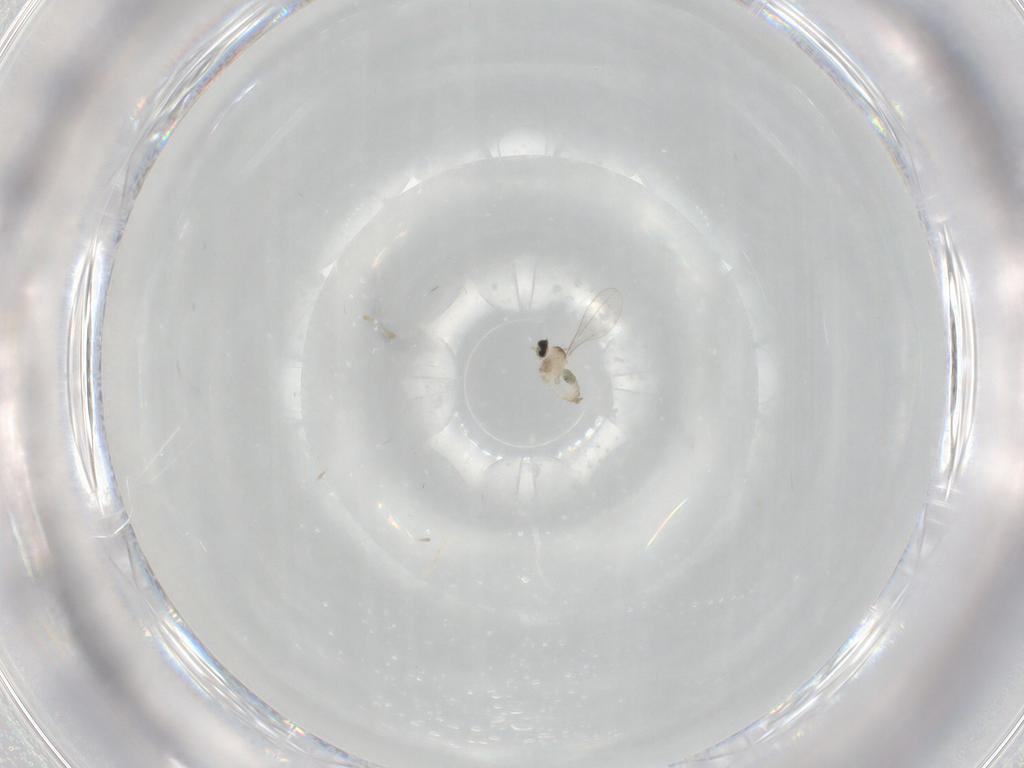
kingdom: Animalia
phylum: Arthropoda
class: Insecta
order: Diptera
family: Cecidomyiidae
